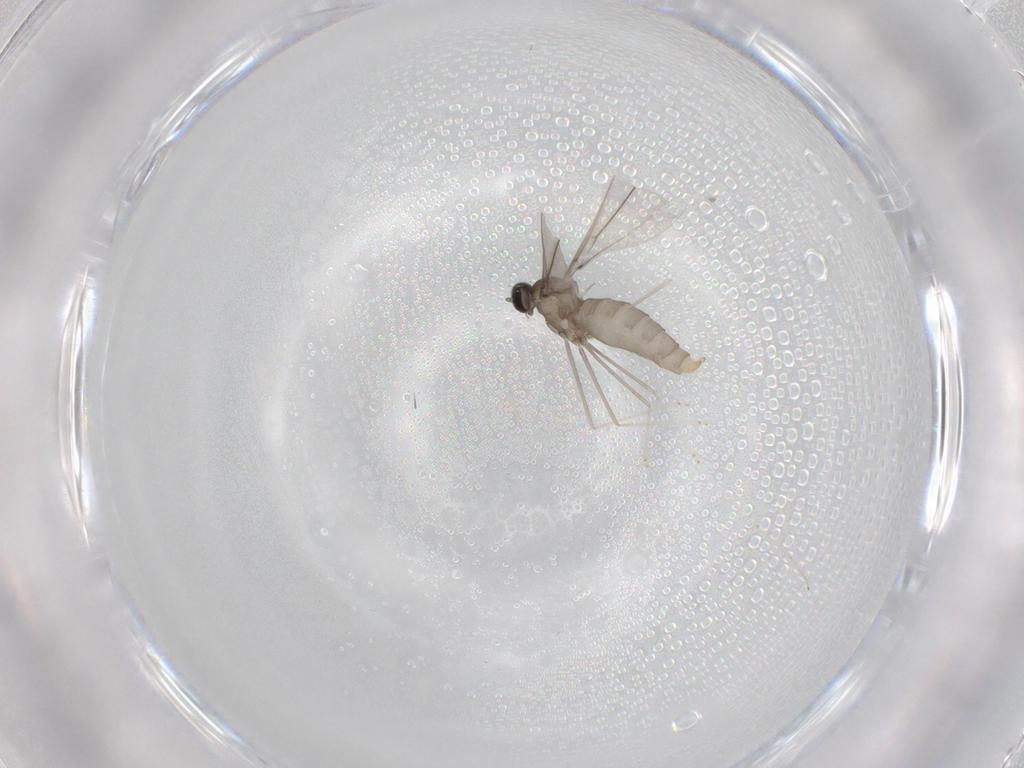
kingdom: Animalia
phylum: Arthropoda
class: Insecta
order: Diptera
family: Cecidomyiidae
